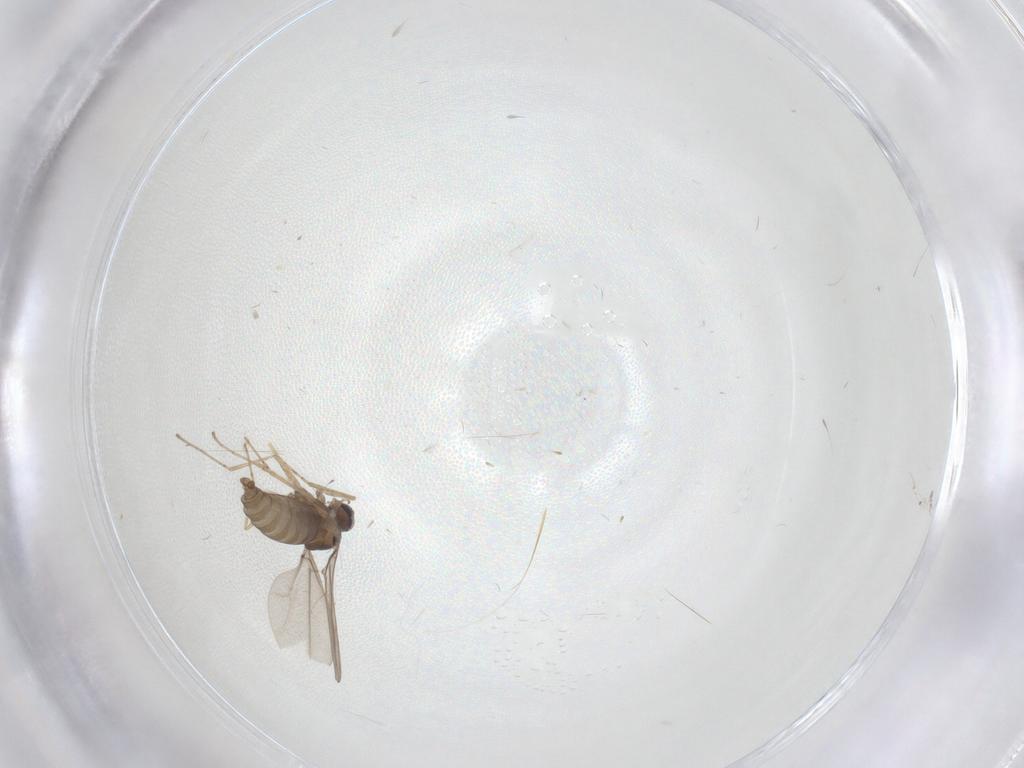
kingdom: Animalia
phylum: Arthropoda
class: Insecta
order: Diptera
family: Cecidomyiidae
